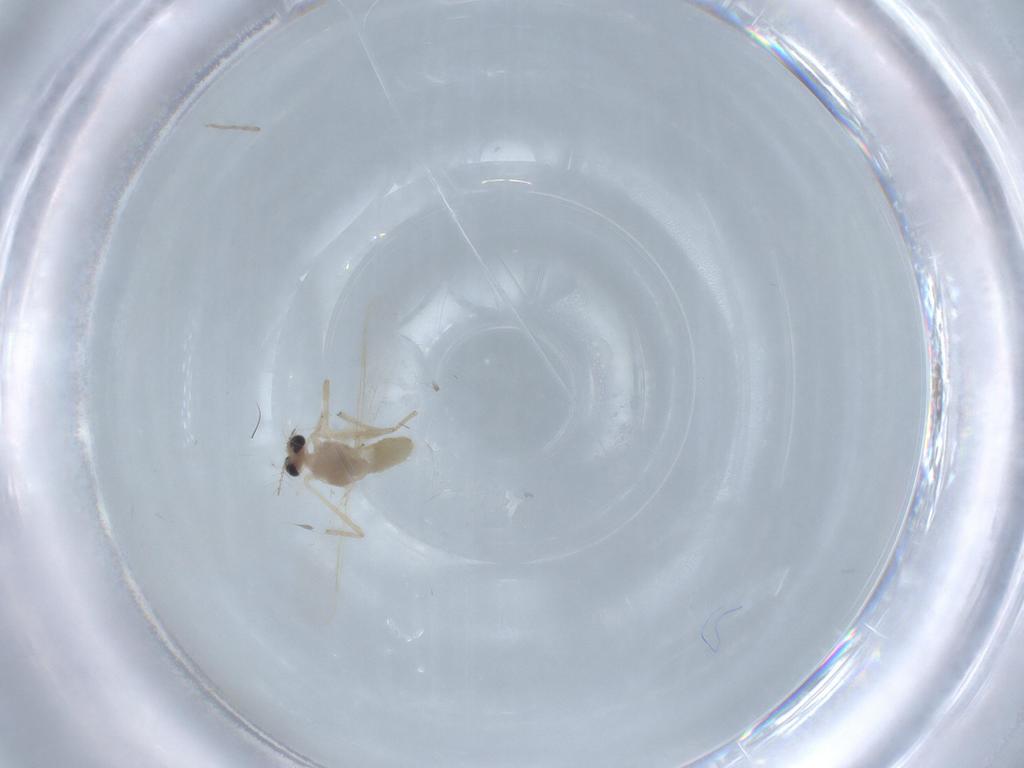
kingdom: Animalia
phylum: Arthropoda
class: Insecta
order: Diptera
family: Chironomidae
